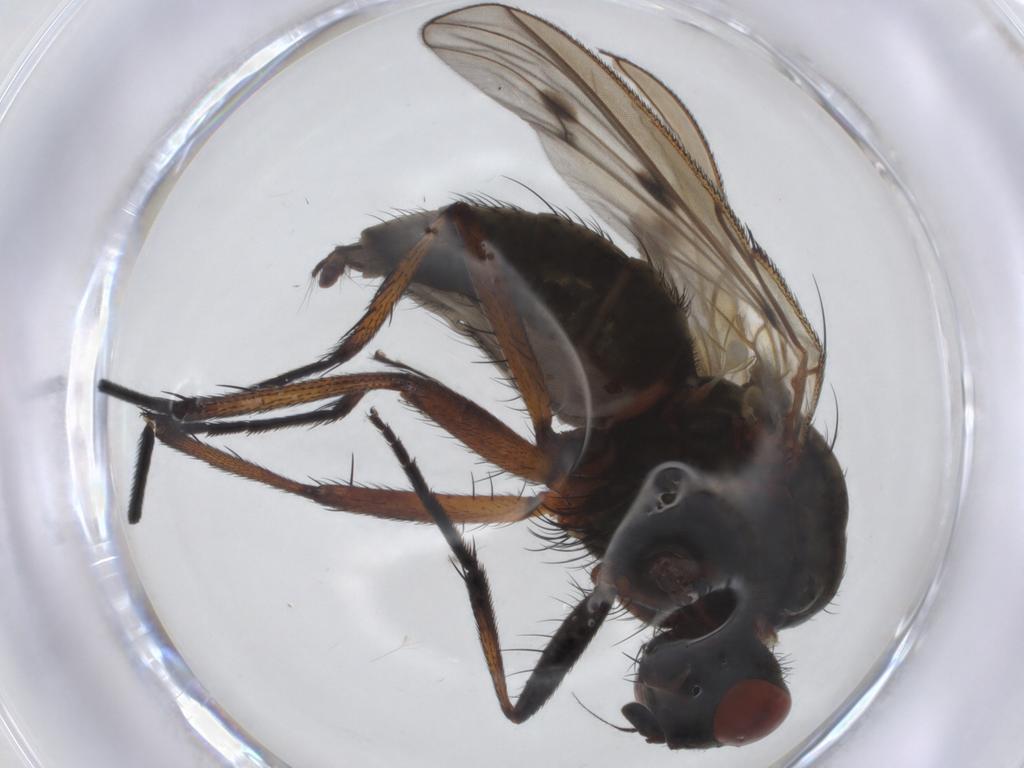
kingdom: Animalia
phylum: Arthropoda
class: Insecta
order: Diptera
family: Anthomyiidae
